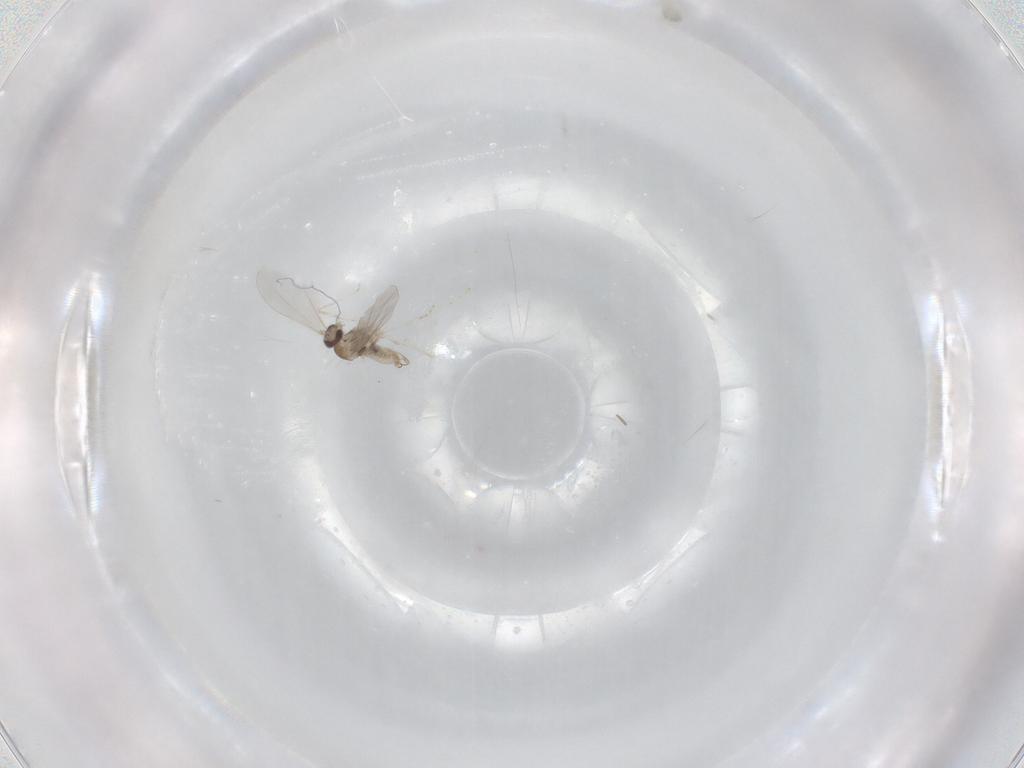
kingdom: Animalia
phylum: Arthropoda
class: Insecta
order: Diptera
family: Cecidomyiidae
